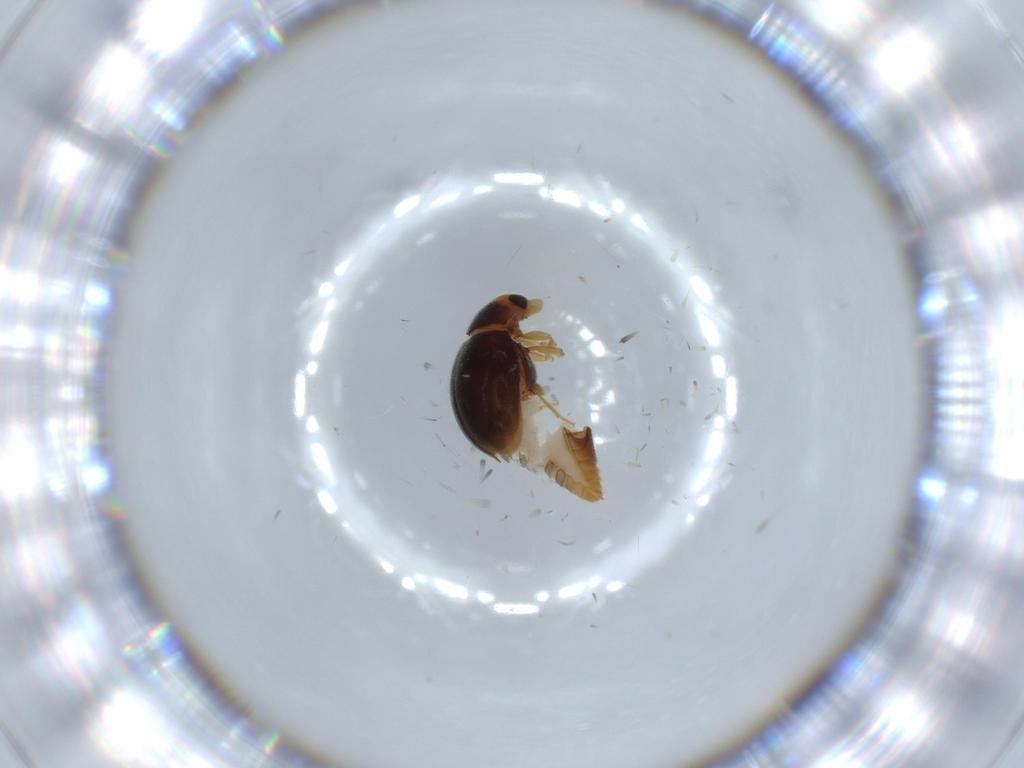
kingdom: Animalia
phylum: Arthropoda
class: Insecta
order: Coleoptera
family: Coccinellidae
